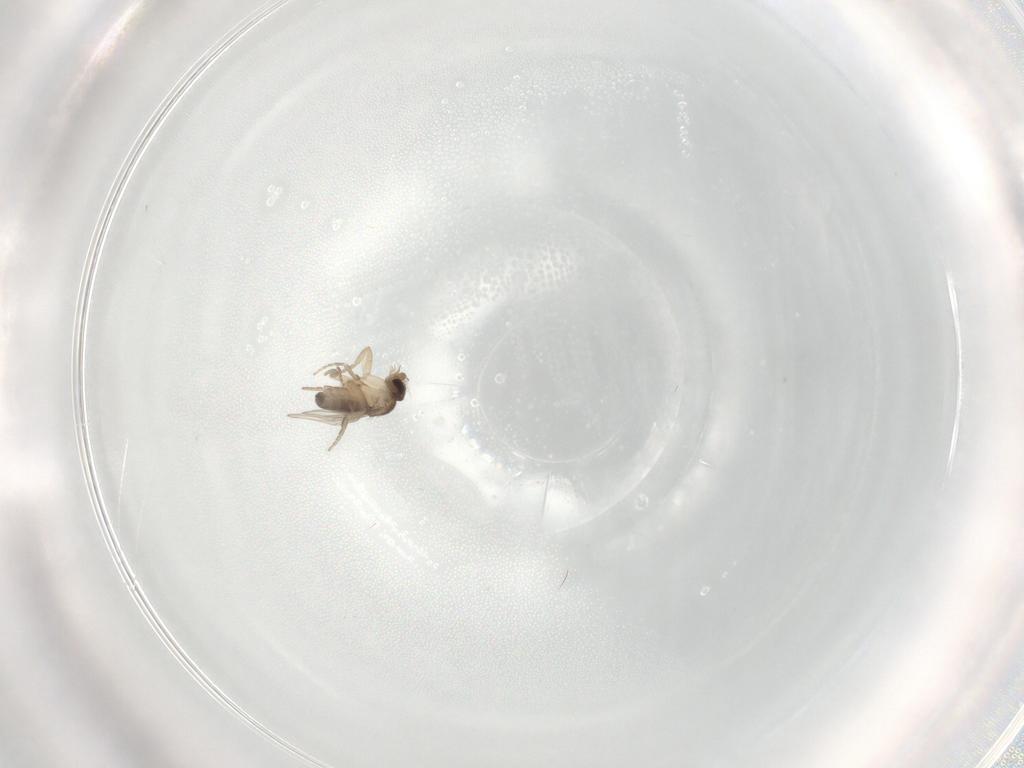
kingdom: Animalia
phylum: Arthropoda
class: Insecta
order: Diptera
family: Phoridae
